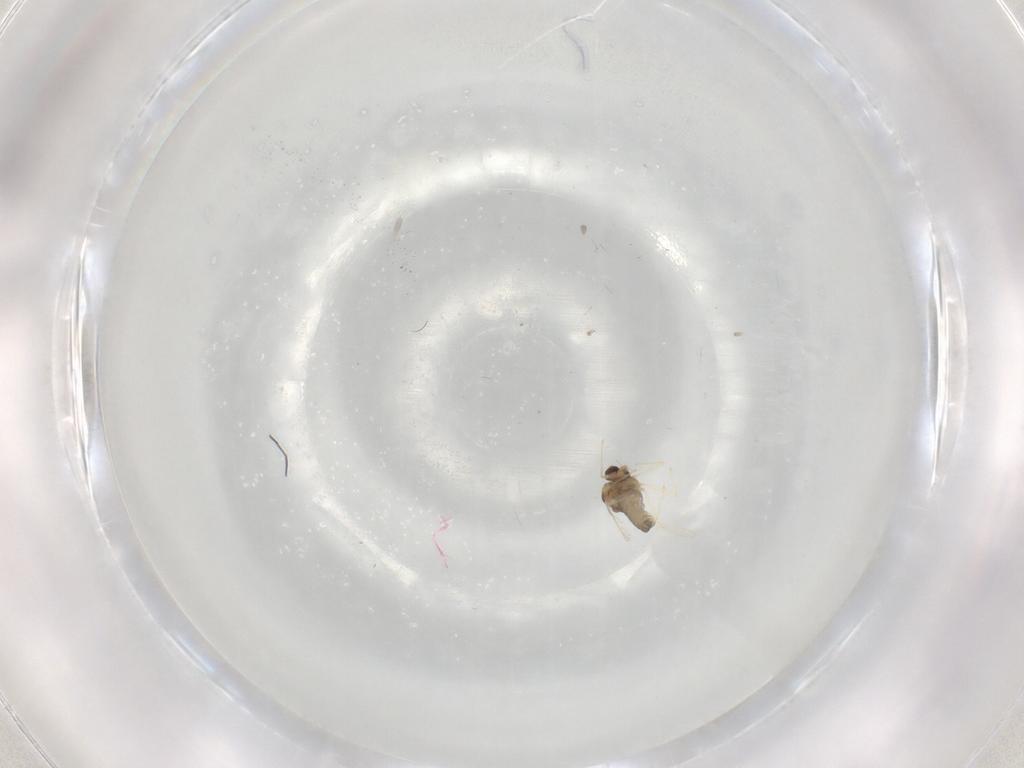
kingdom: Animalia
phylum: Arthropoda
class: Insecta
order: Diptera
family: Chironomidae
